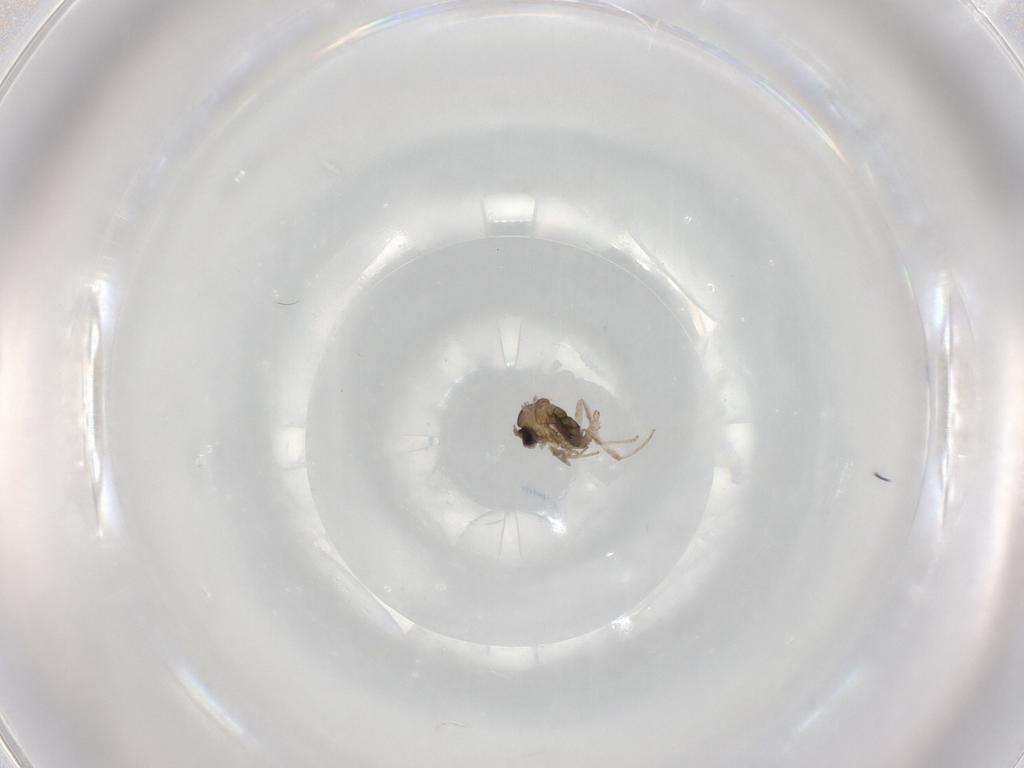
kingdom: Animalia
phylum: Arthropoda
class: Insecta
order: Diptera
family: Cecidomyiidae
